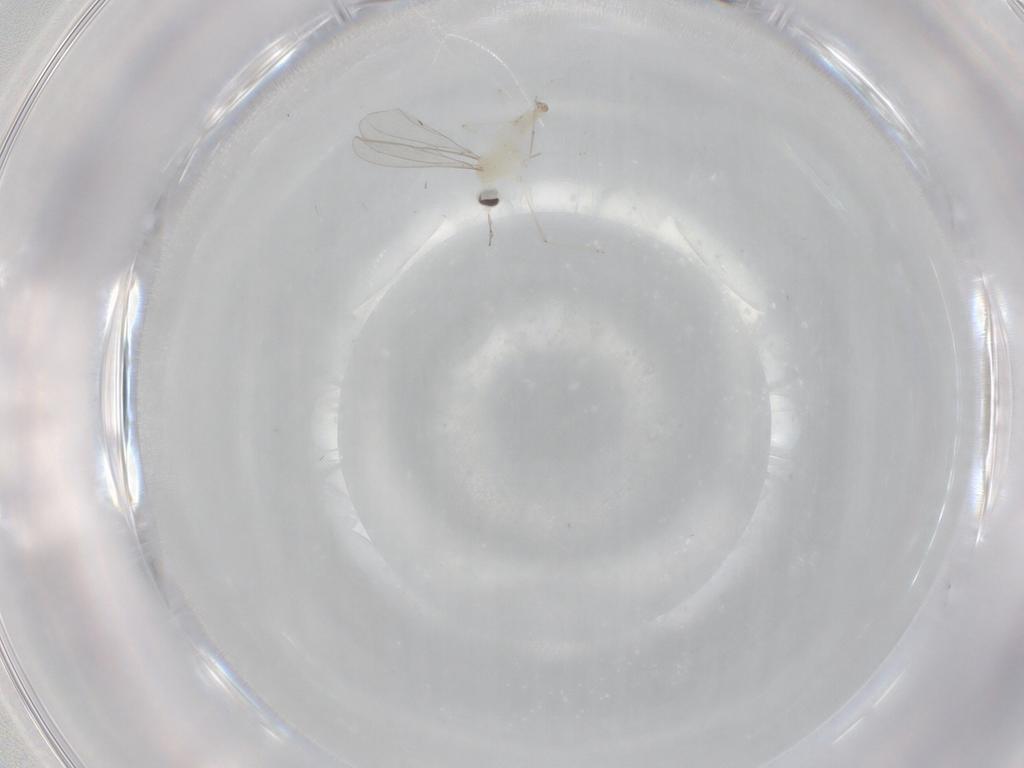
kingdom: Animalia
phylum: Arthropoda
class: Insecta
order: Diptera
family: Cecidomyiidae
